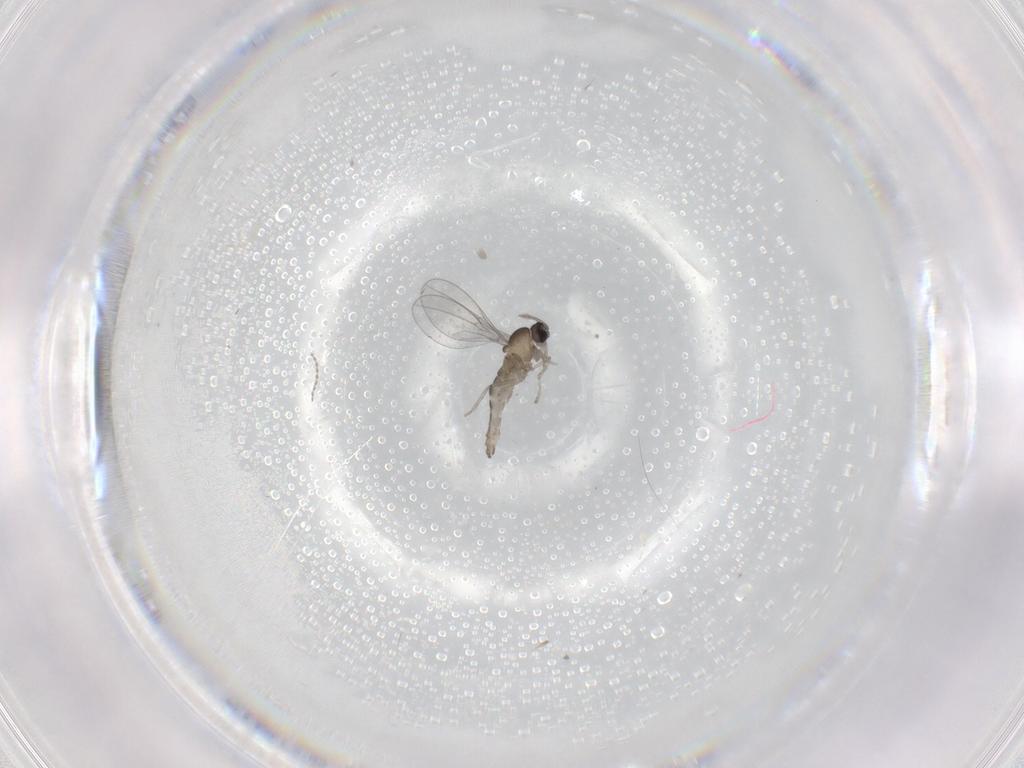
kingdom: Animalia
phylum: Arthropoda
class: Insecta
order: Diptera
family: Cecidomyiidae
